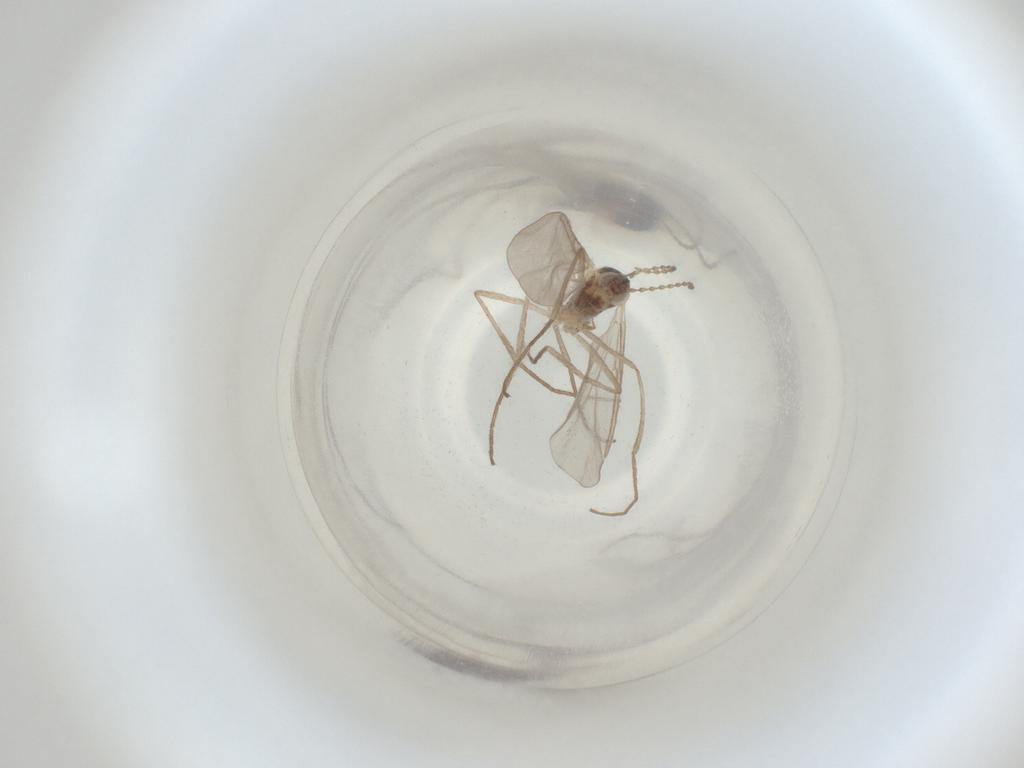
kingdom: Animalia
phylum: Arthropoda
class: Insecta
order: Diptera
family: Cecidomyiidae
